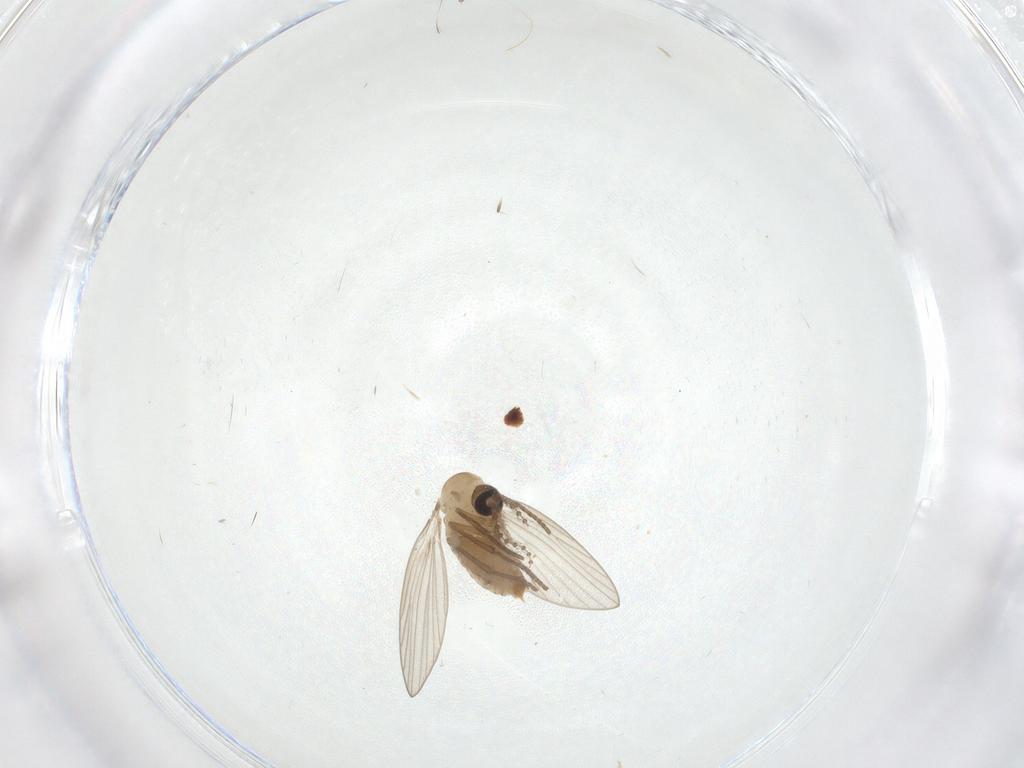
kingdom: Animalia
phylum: Arthropoda
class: Insecta
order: Diptera
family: Psychodidae
